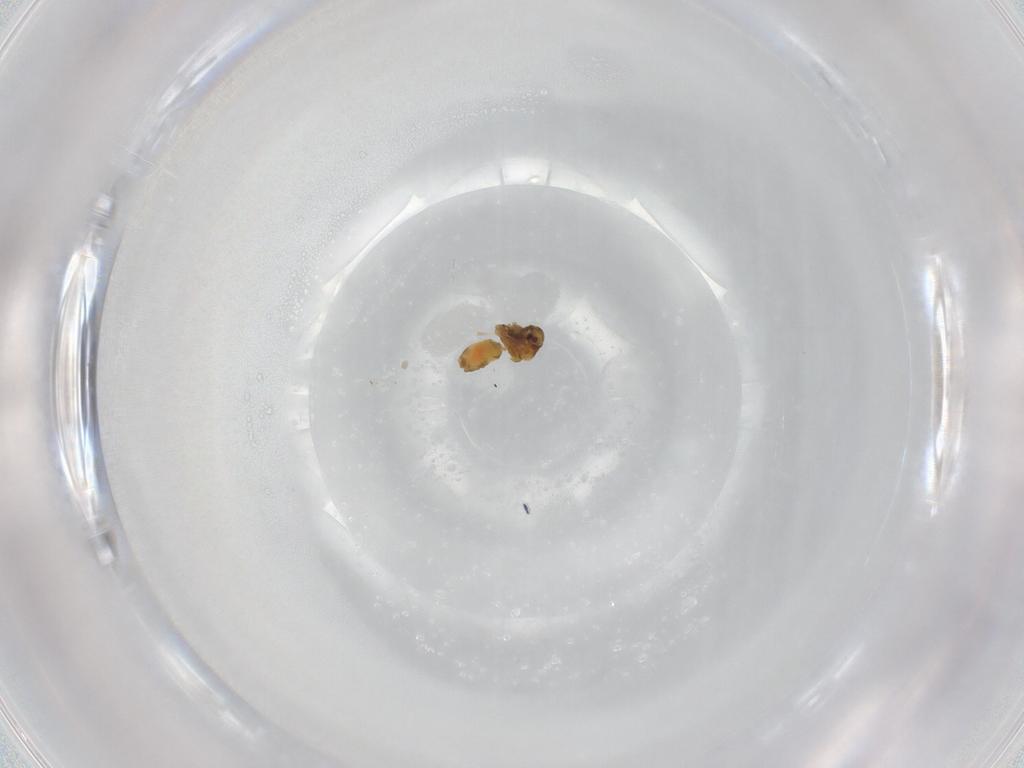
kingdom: Animalia
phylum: Arthropoda
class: Insecta
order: Hemiptera
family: Aleyrodidae
